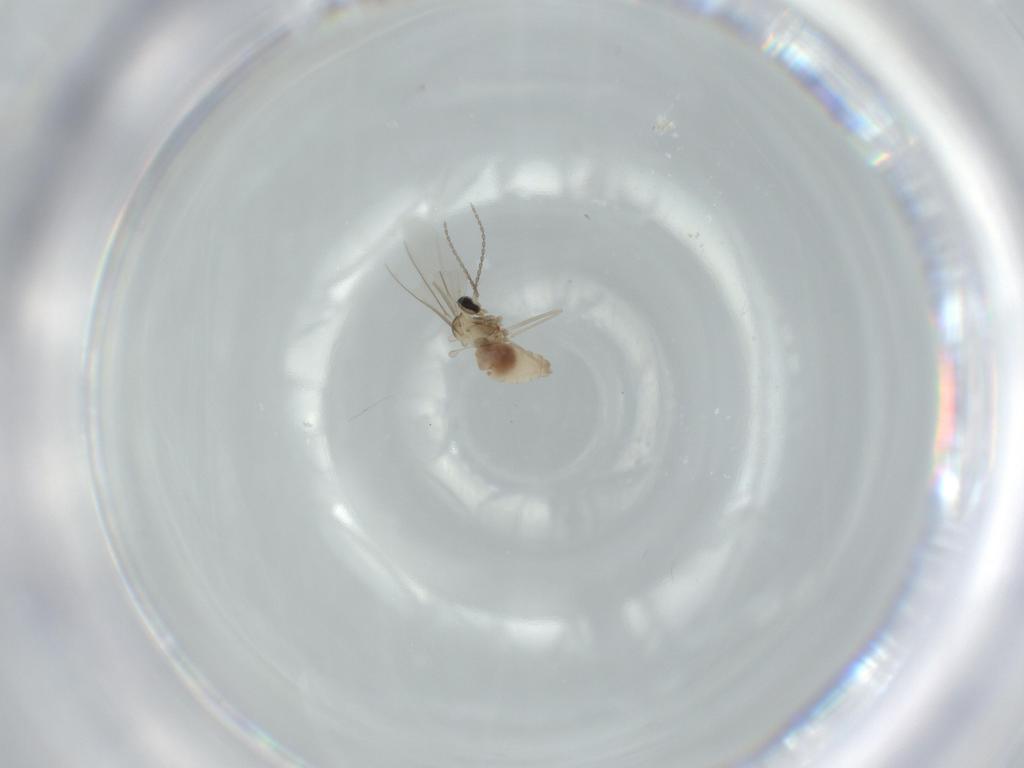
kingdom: Animalia
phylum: Arthropoda
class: Insecta
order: Diptera
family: Cecidomyiidae
